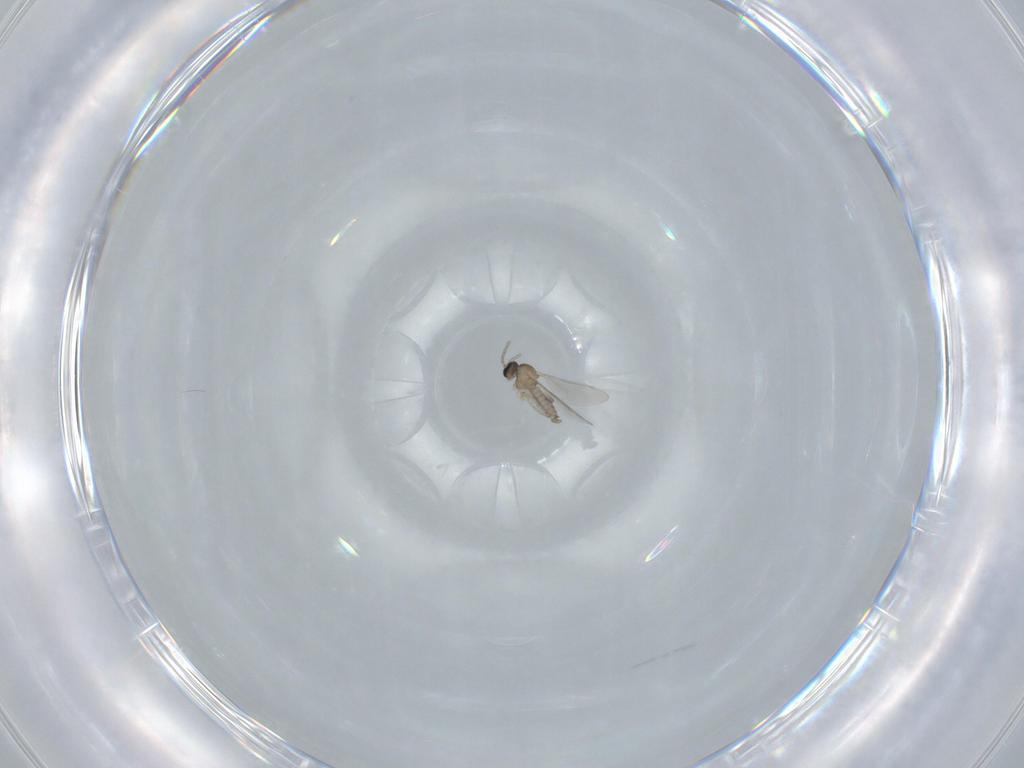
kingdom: Animalia
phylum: Arthropoda
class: Insecta
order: Diptera
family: Cecidomyiidae
